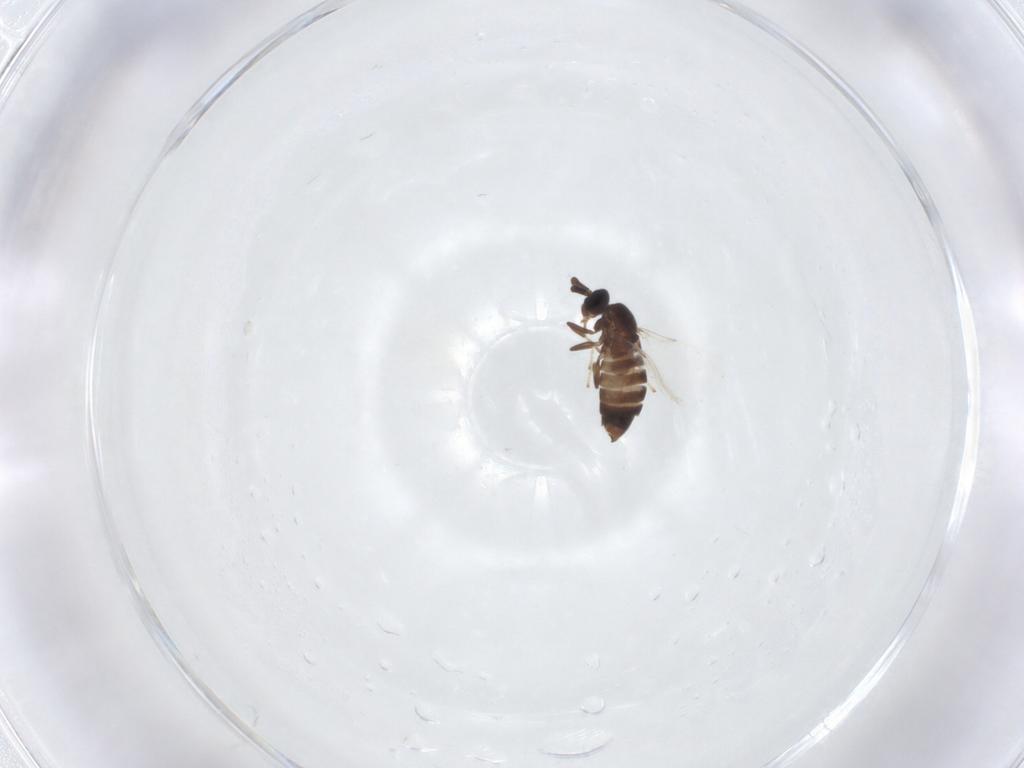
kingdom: Animalia
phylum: Arthropoda
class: Insecta
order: Diptera
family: Scatopsidae
